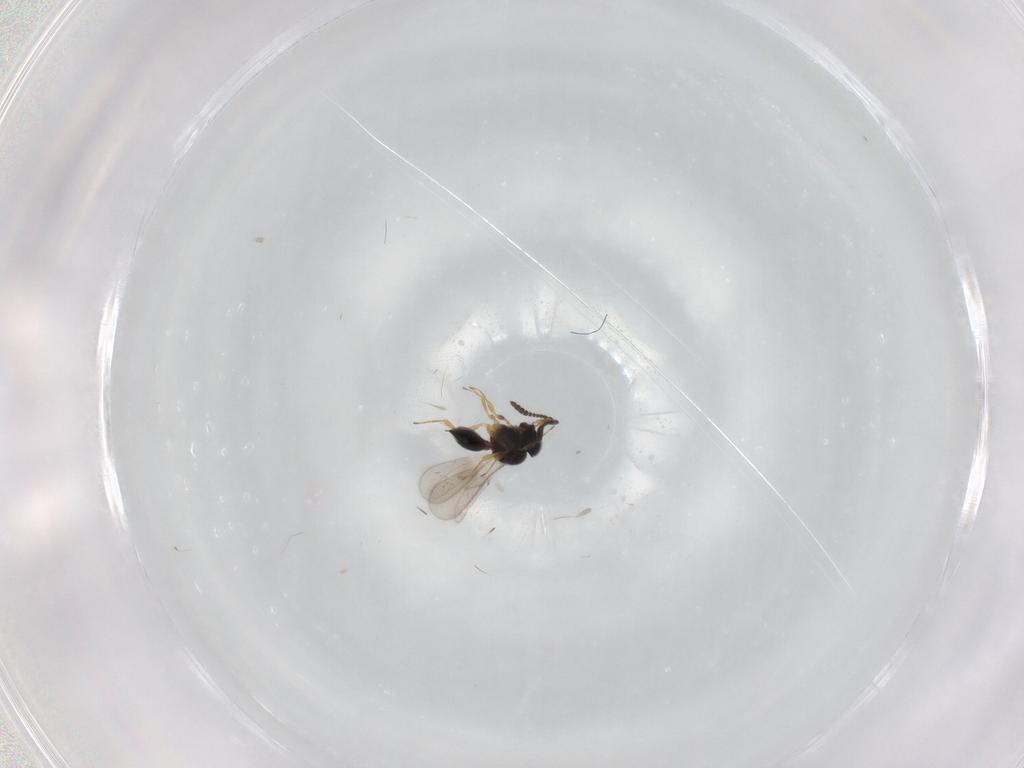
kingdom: Animalia
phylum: Arthropoda
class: Insecta
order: Hymenoptera
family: Scelionidae
